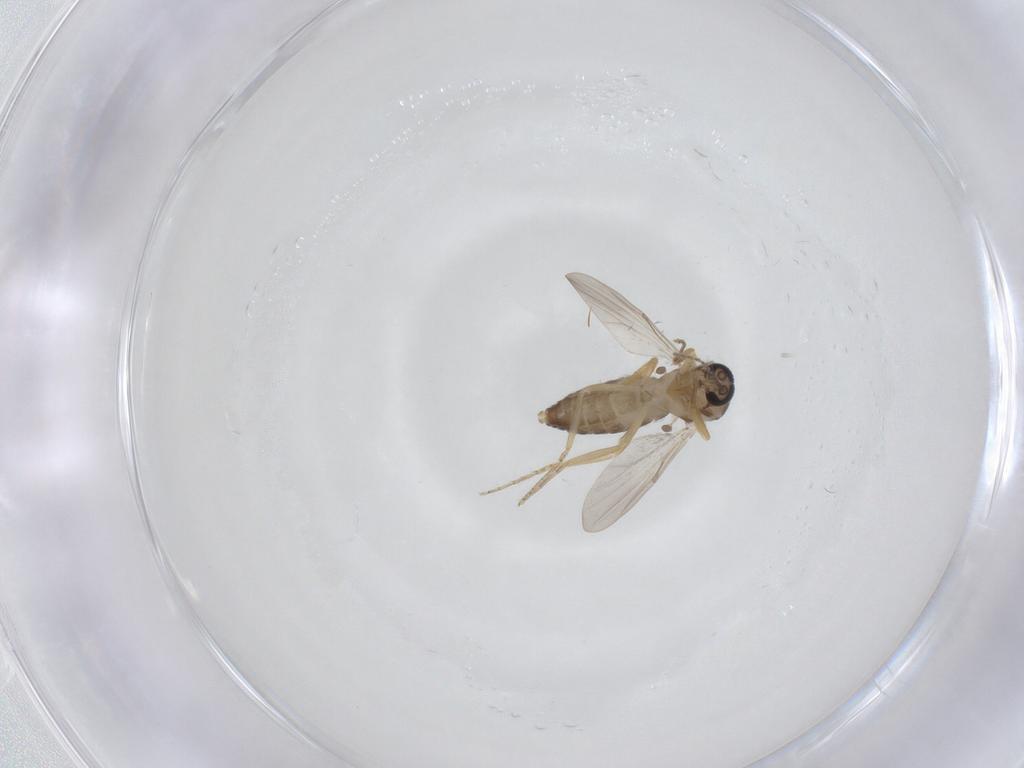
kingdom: Animalia
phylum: Arthropoda
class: Insecta
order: Diptera
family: Ceratopogonidae
